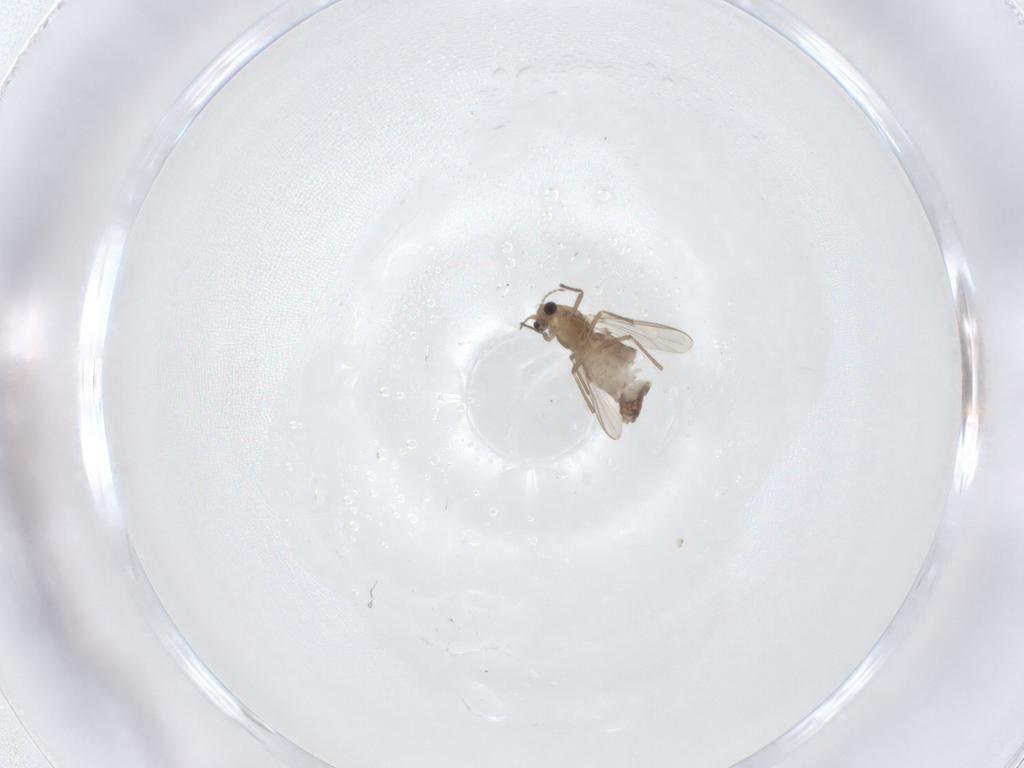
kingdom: Animalia
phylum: Arthropoda
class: Insecta
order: Diptera
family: Chironomidae
